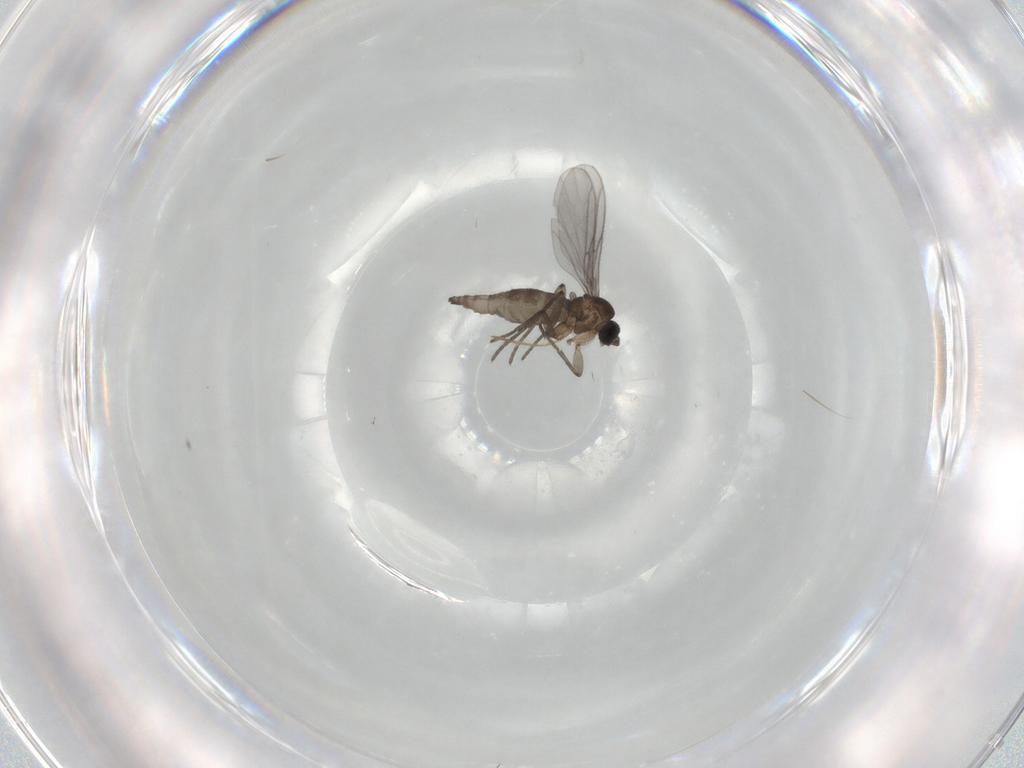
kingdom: Animalia
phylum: Arthropoda
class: Insecta
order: Diptera
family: Sciaridae
